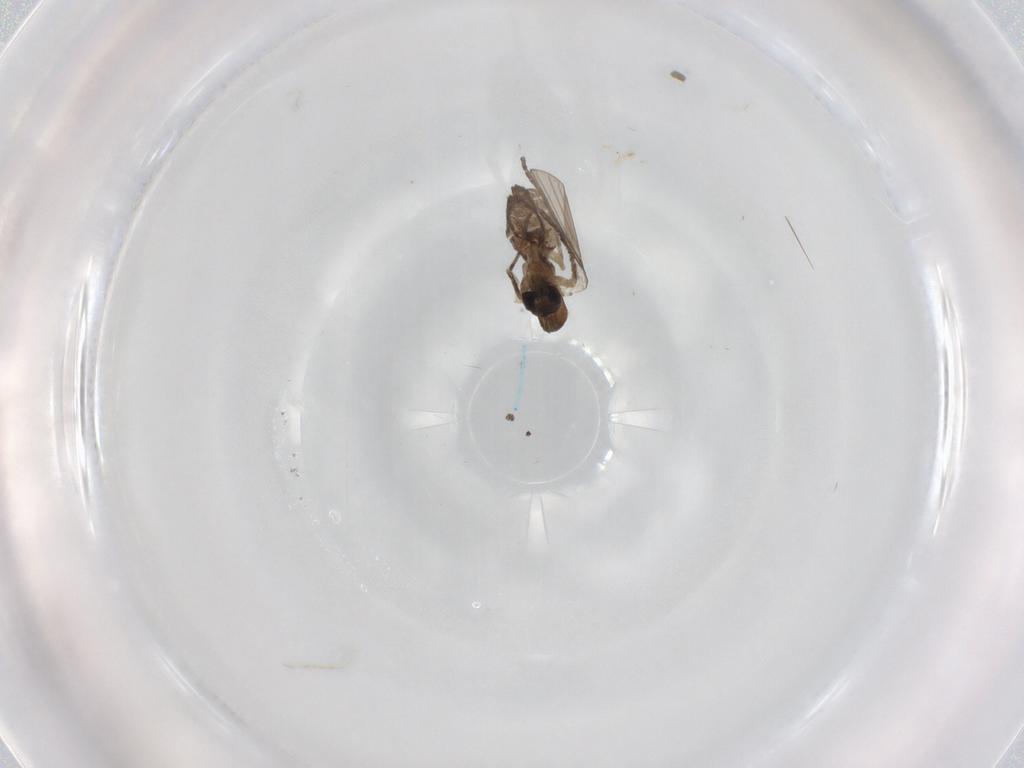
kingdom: Animalia
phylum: Arthropoda
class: Insecta
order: Diptera
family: Psychodidae
